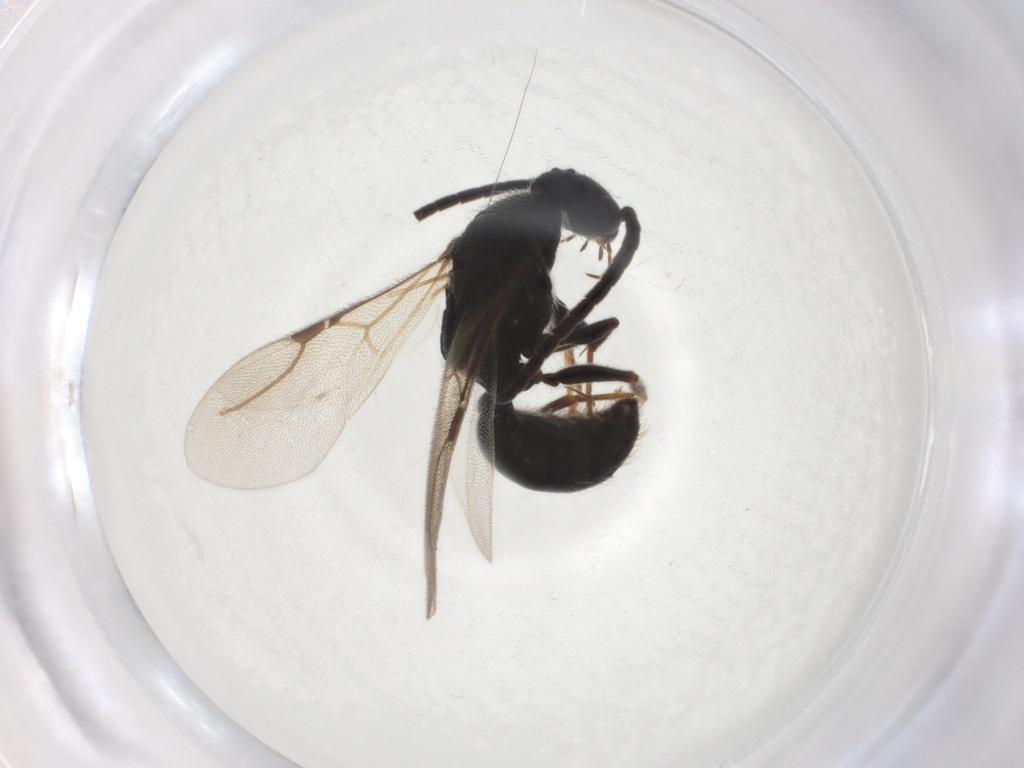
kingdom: Animalia
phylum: Arthropoda
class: Insecta
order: Hymenoptera
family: Bethylidae
